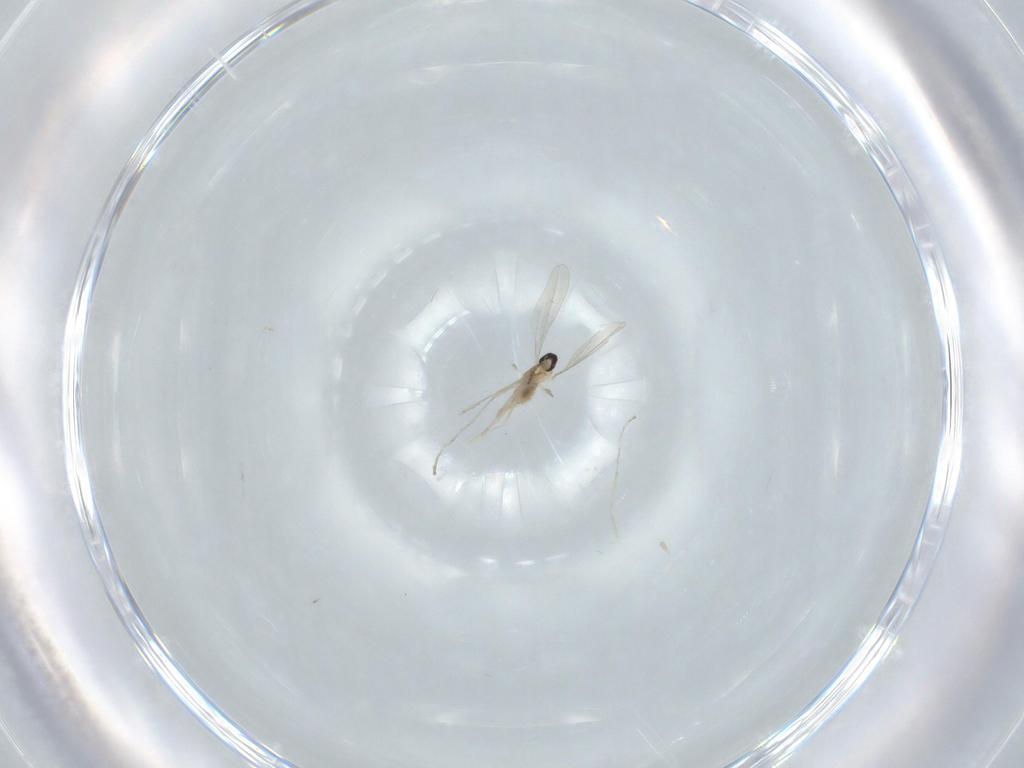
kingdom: Animalia
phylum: Arthropoda
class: Insecta
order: Diptera
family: Cecidomyiidae
